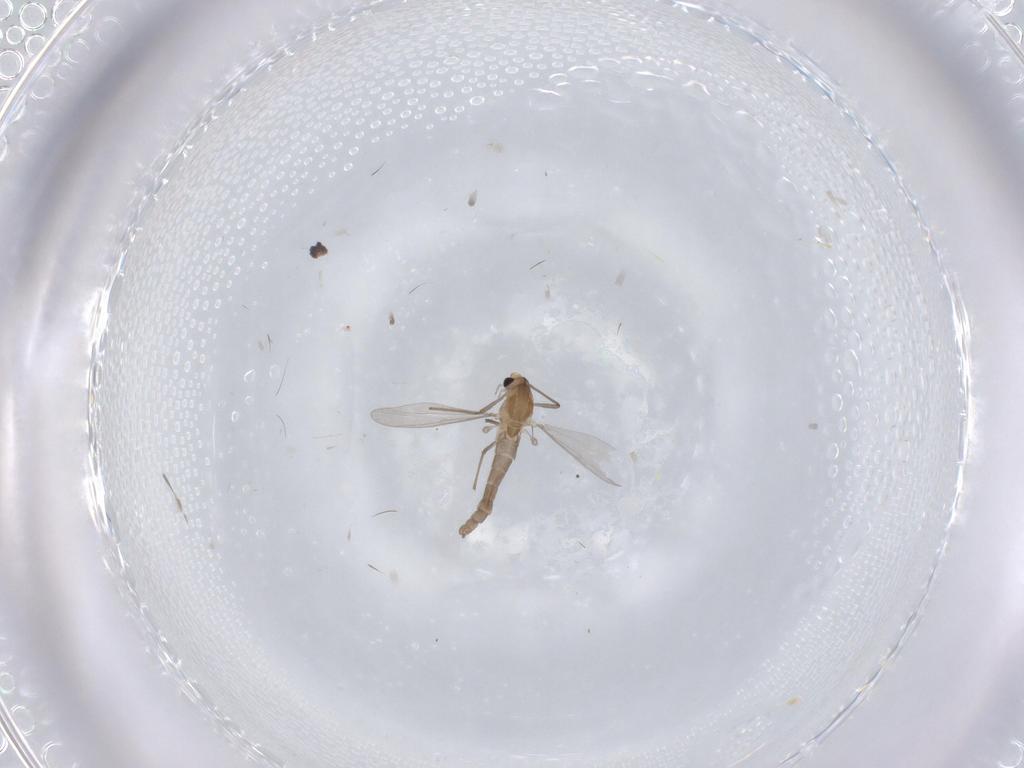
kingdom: Animalia
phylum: Arthropoda
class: Insecta
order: Diptera
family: Chironomidae
